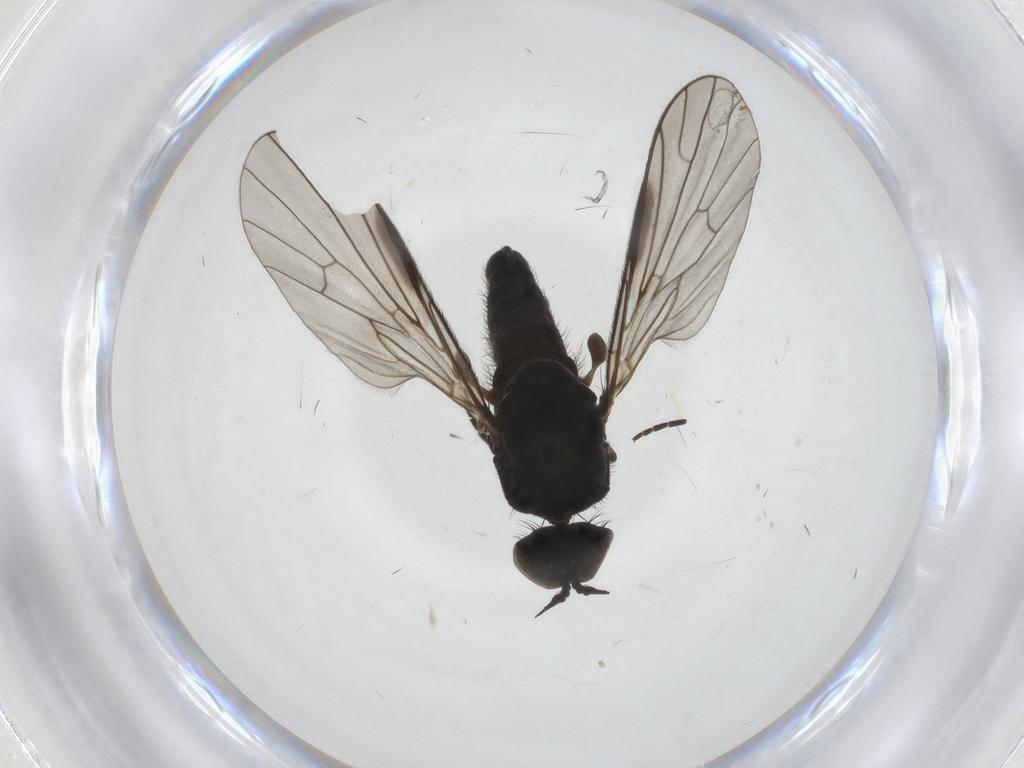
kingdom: Animalia
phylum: Arthropoda
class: Insecta
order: Diptera
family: Empididae
